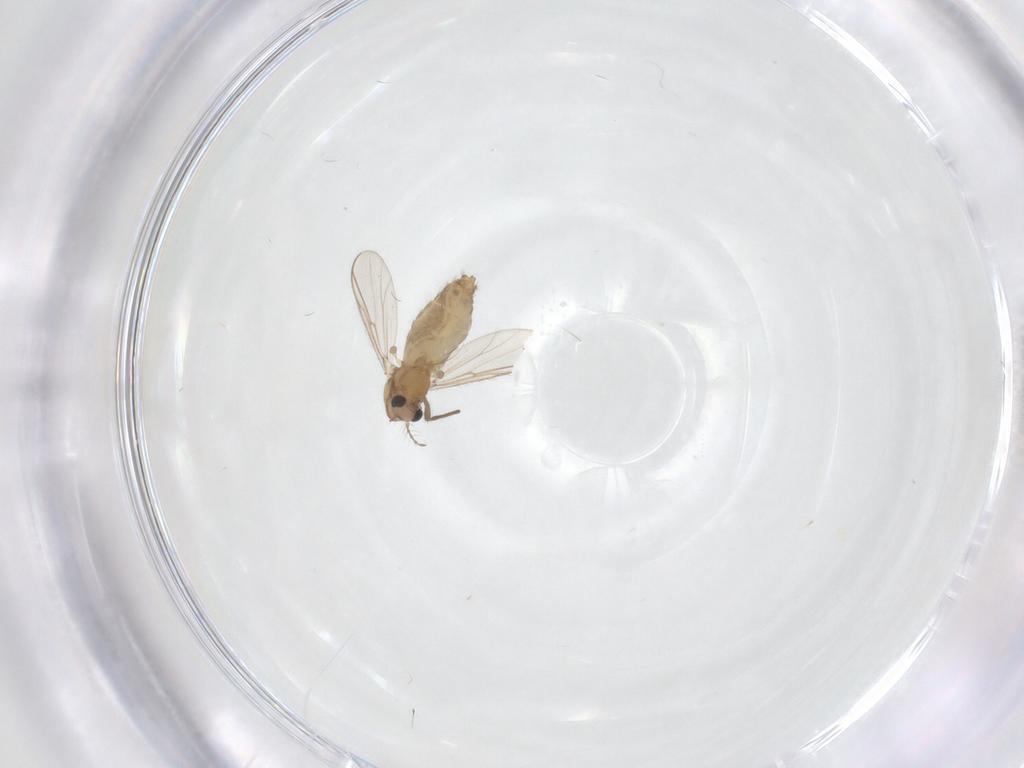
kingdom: Animalia
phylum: Arthropoda
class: Insecta
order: Diptera
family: Chironomidae
